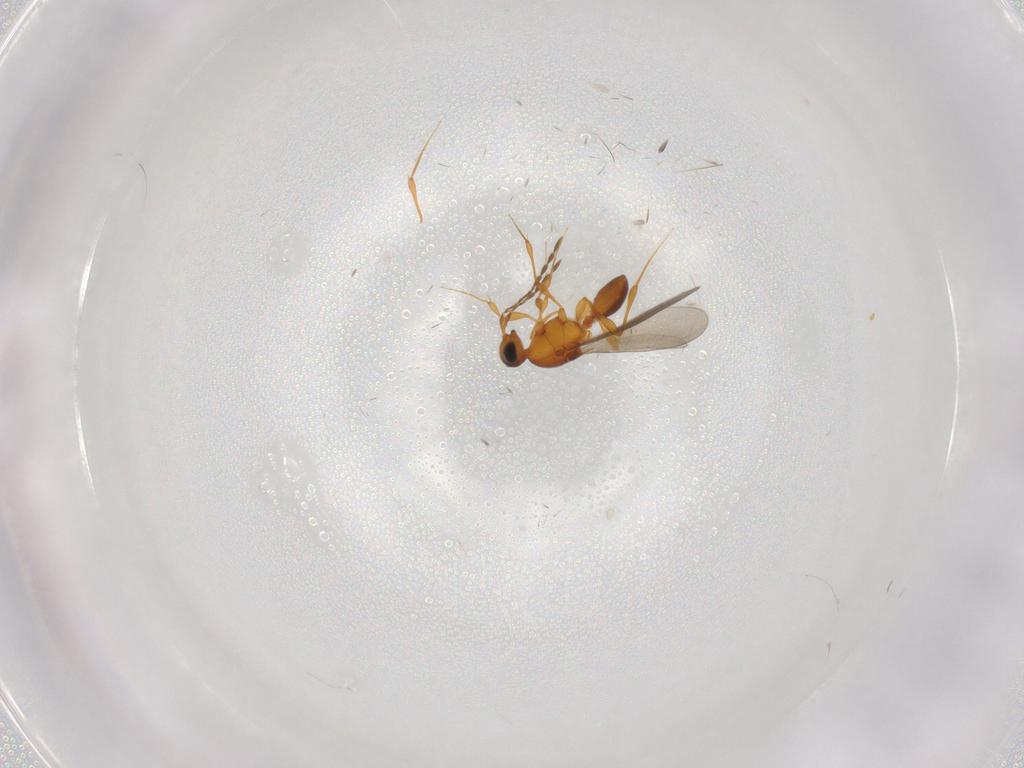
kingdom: Animalia
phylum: Arthropoda
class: Insecta
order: Hymenoptera
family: Platygastridae
